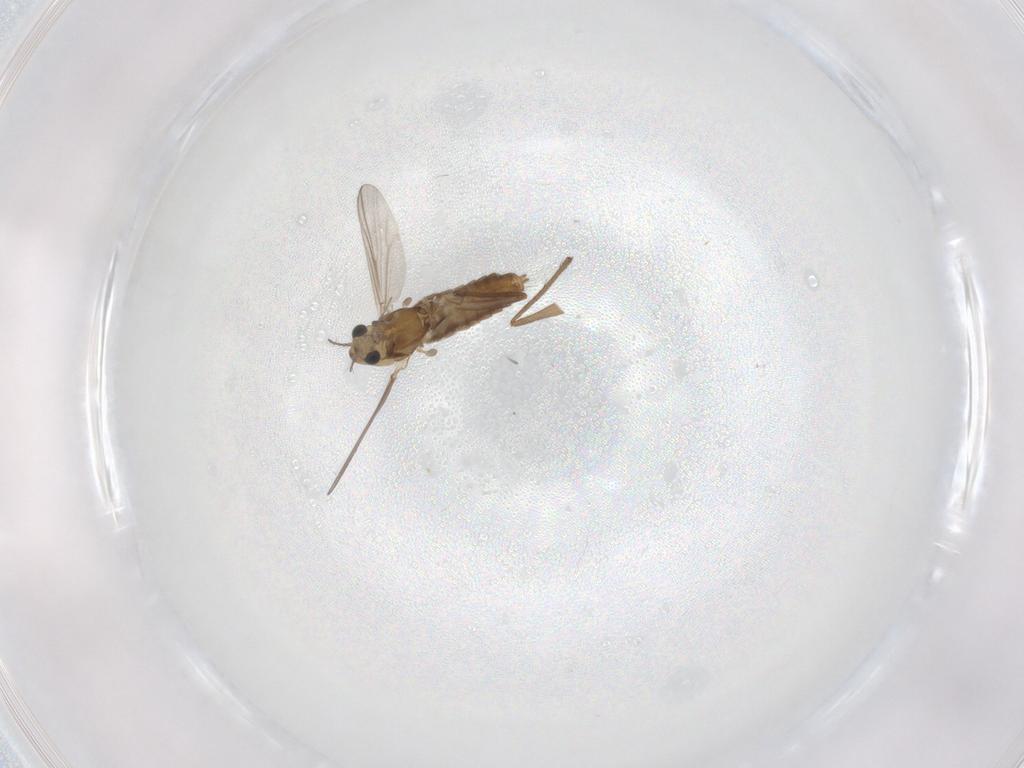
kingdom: Animalia
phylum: Arthropoda
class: Insecta
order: Diptera
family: Chironomidae
